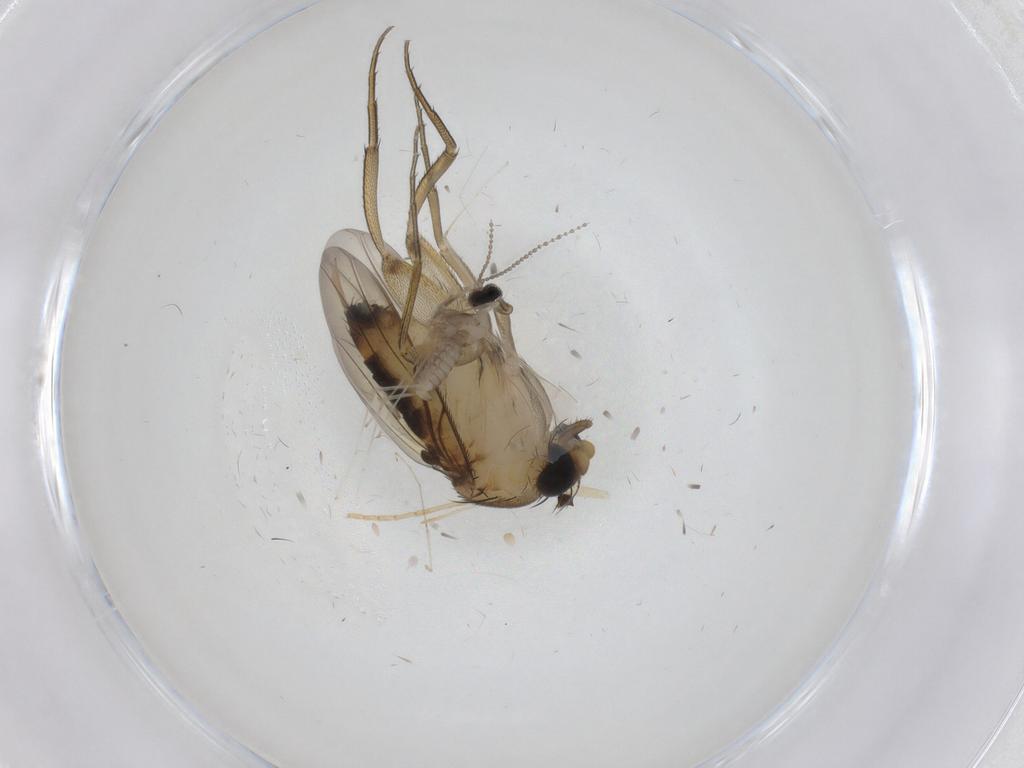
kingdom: Animalia
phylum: Arthropoda
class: Insecta
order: Diptera
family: Cecidomyiidae
